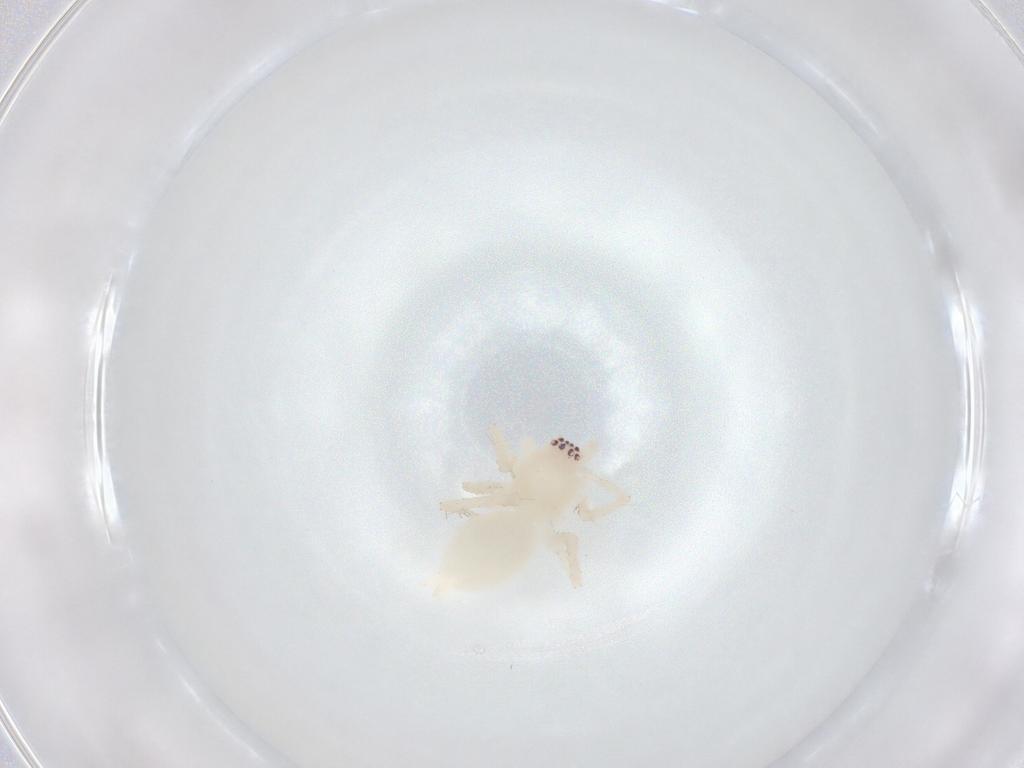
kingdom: Animalia
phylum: Arthropoda
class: Arachnida
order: Araneae
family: Anyphaenidae
